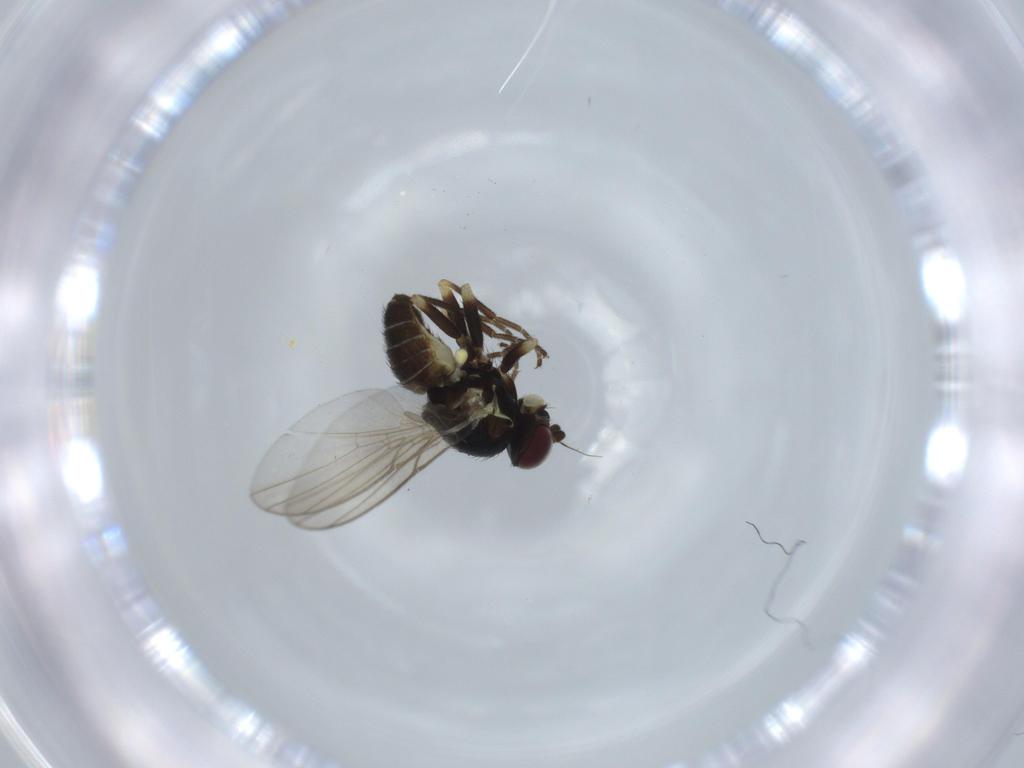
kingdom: Animalia
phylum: Arthropoda
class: Insecta
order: Diptera
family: Agromyzidae
